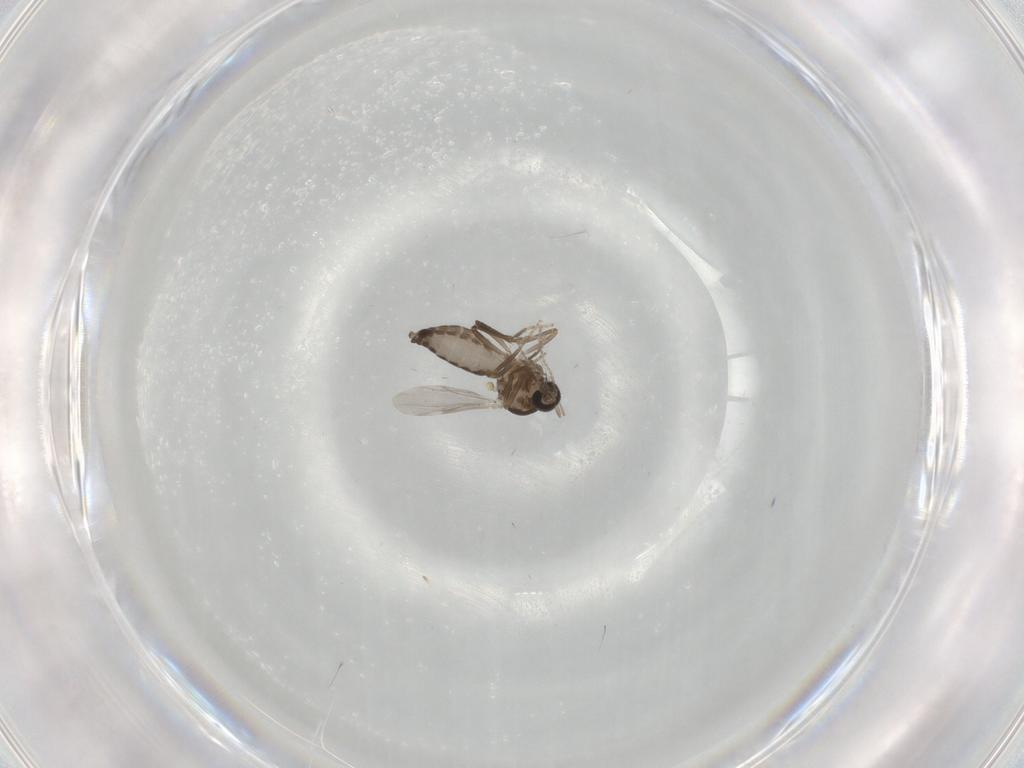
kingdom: Animalia
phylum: Arthropoda
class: Insecta
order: Diptera
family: Ceratopogonidae
